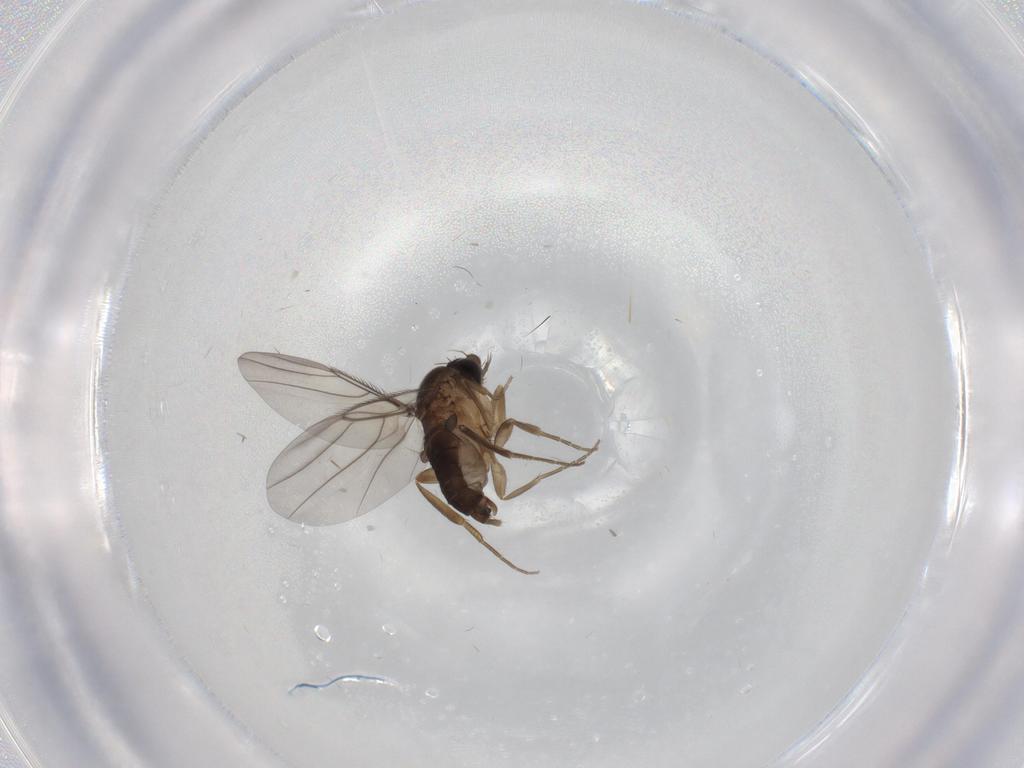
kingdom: Animalia
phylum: Arthropoda
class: Insecta
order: Diptera
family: Phoridae
